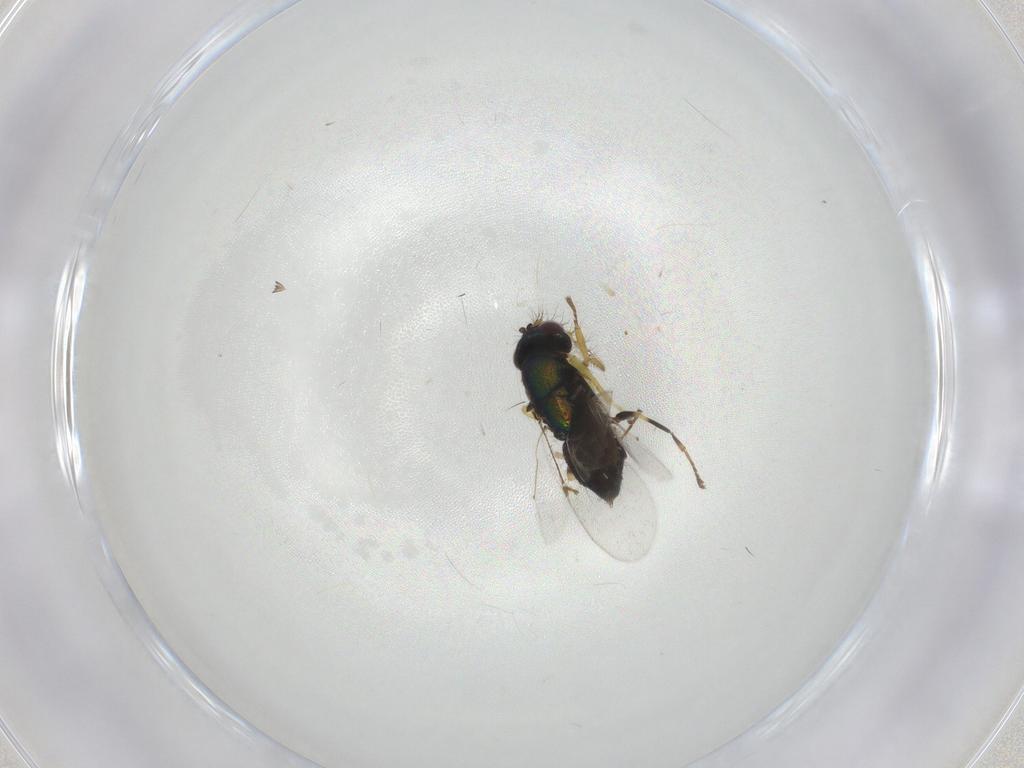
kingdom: Animalia
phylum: Arthropoda
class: Insecta
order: Hymenoptera
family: Encyrtidae
